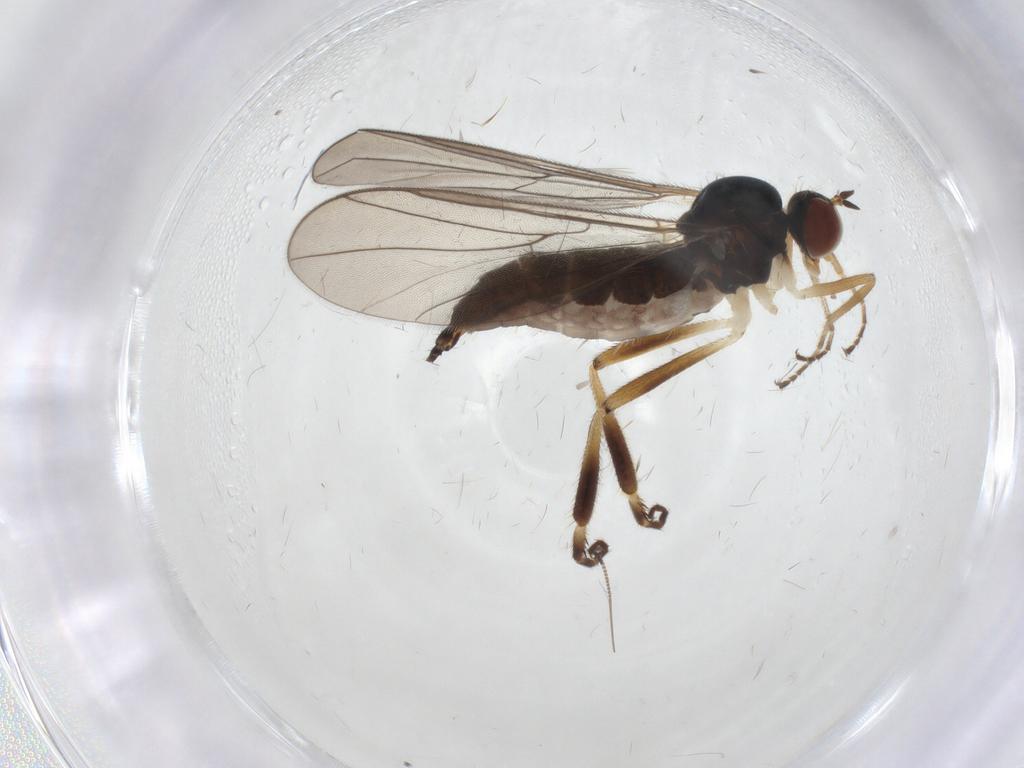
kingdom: Animalia
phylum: Arthropoda
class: Insecta
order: Diptera
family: Hybotidae
